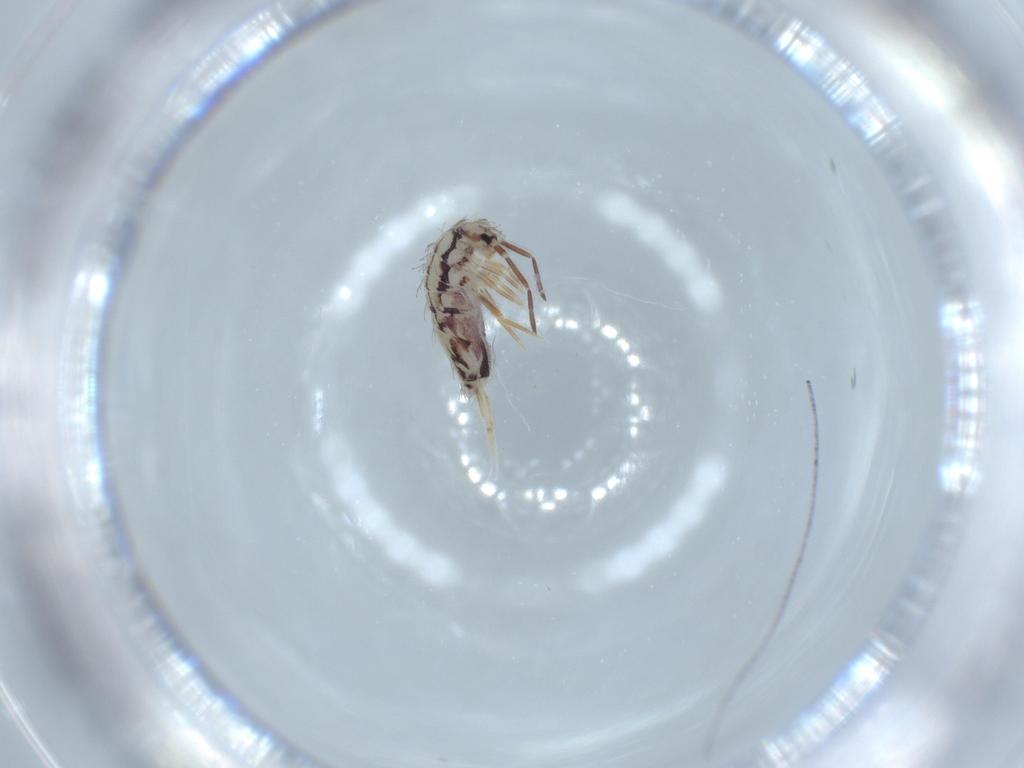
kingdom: Animalia
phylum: Arthropoda
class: Collembola
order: Entomobryomorpha
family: Entomobryidae
